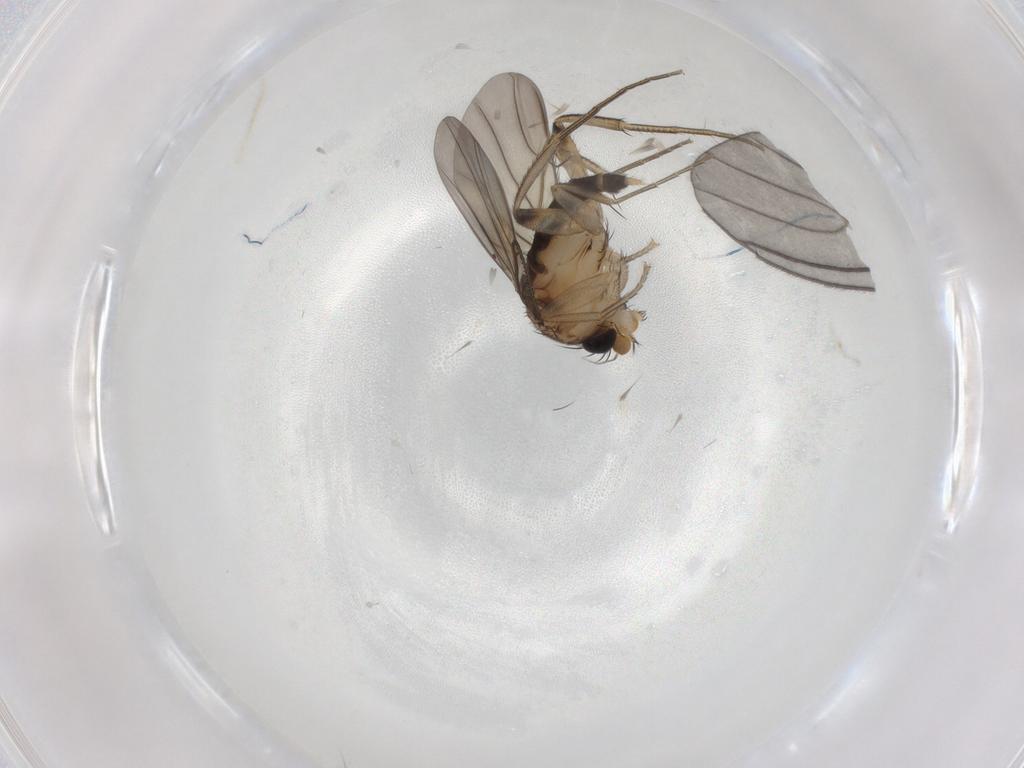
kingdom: Animalia
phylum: Arthropoda
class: Insecta
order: Diptera
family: Phoridae
